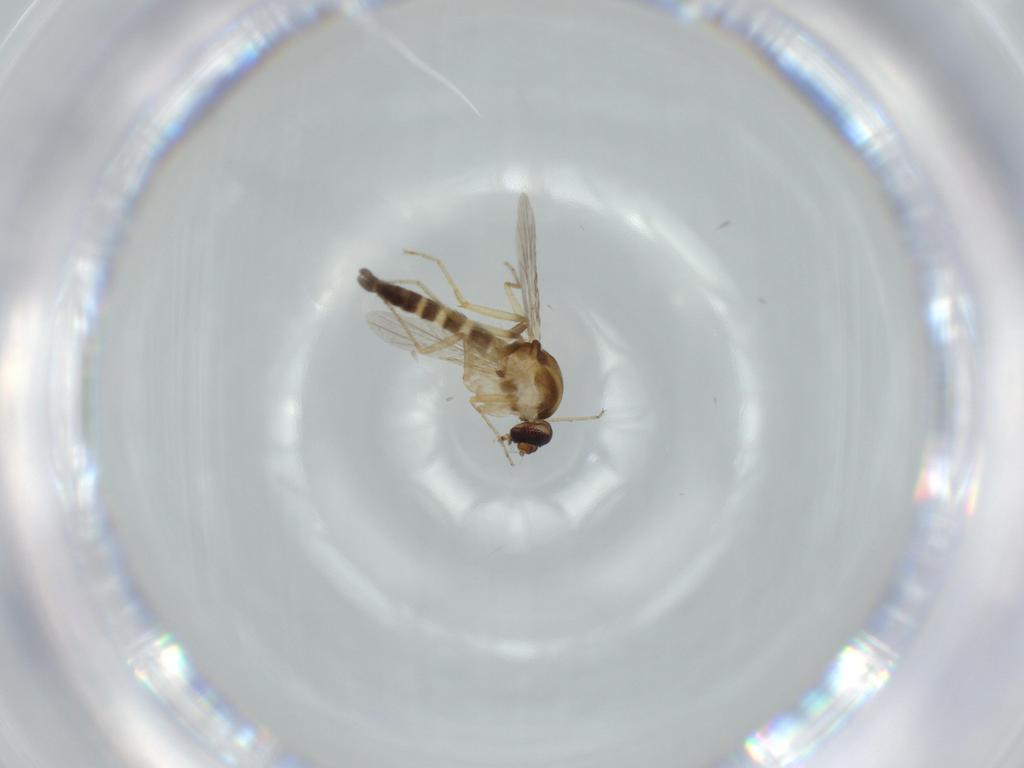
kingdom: Animalia
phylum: Arthropoda
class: Insecta
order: Diptera
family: Ceratopogonidae
